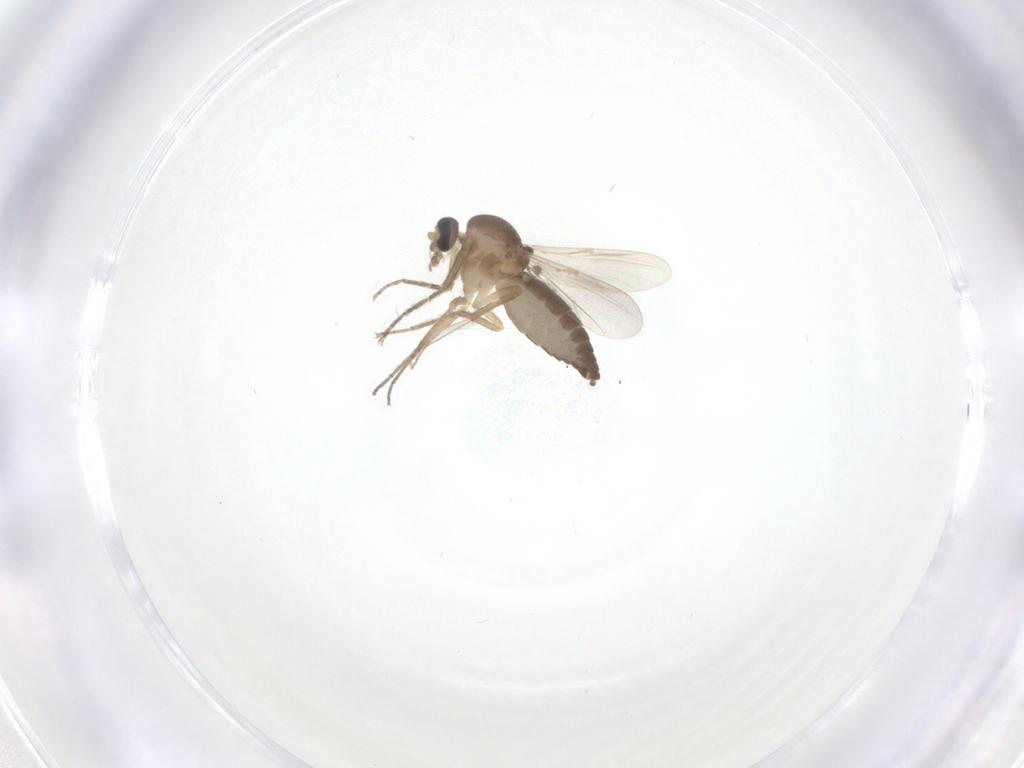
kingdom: Animalia
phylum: Arthropoda
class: Insecta
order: Diptera
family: Ceratopogonidae
